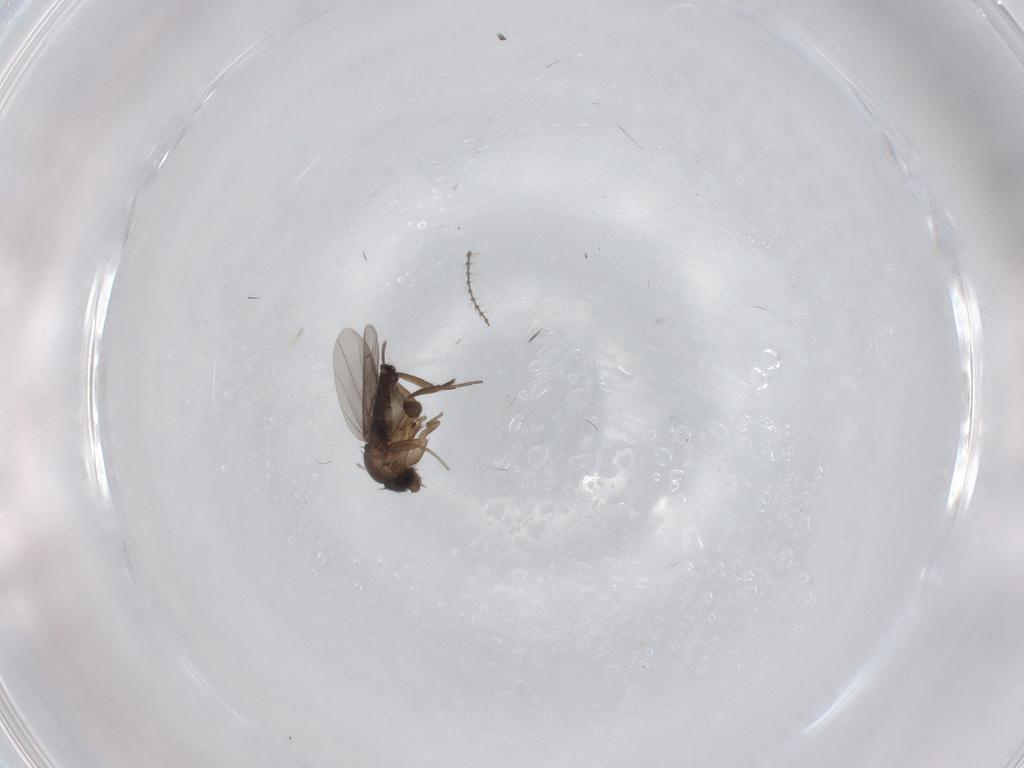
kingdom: Animalia
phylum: Arthropoda
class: Insecta
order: Diptera
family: Phoridae
